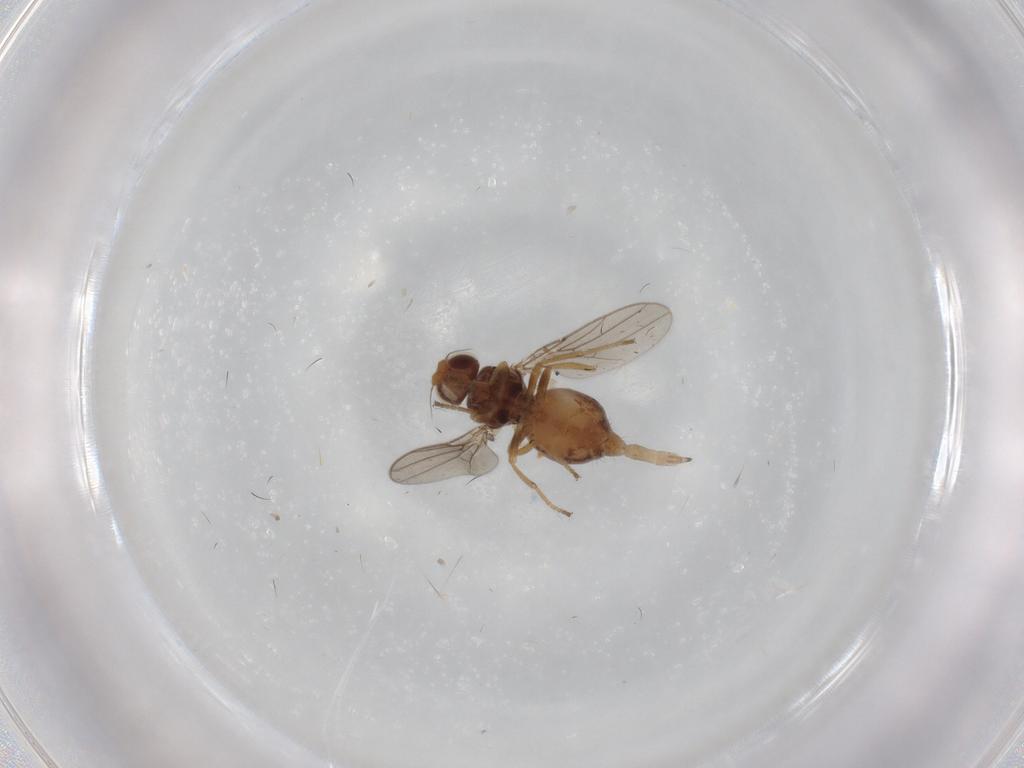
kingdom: Animalia
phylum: Arthropoda
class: Insecta
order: Diptera
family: Chloropidae
